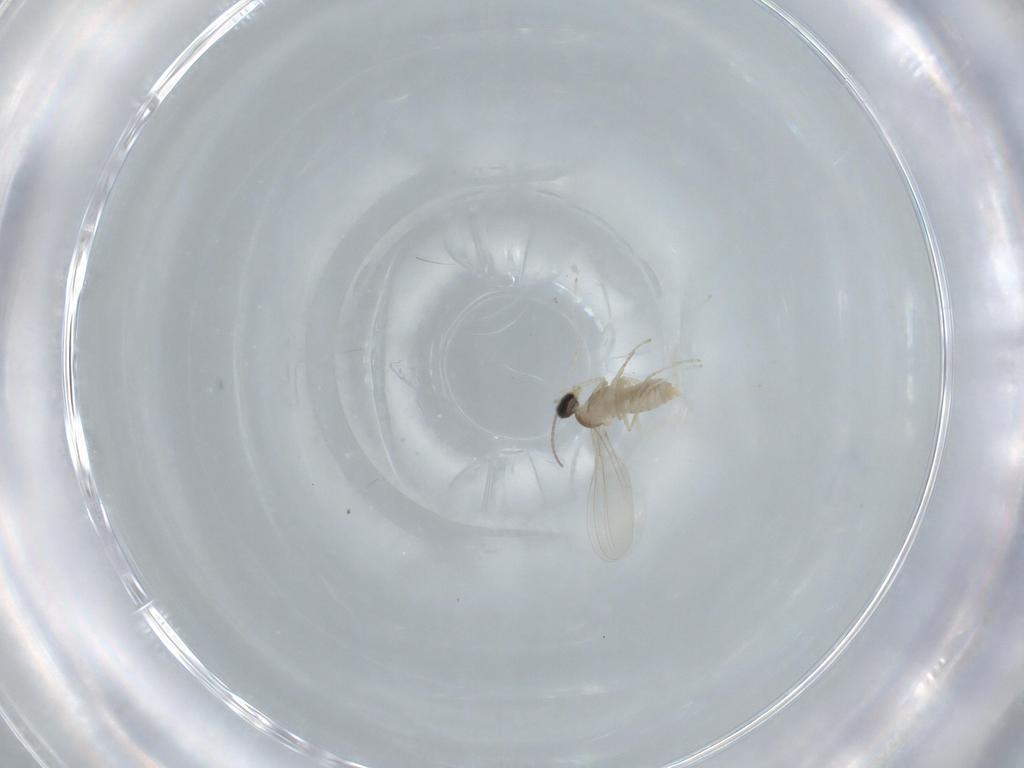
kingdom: Animalia
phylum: Arthropoda
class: Insecta
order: Diptera
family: Cecidomyiidae
